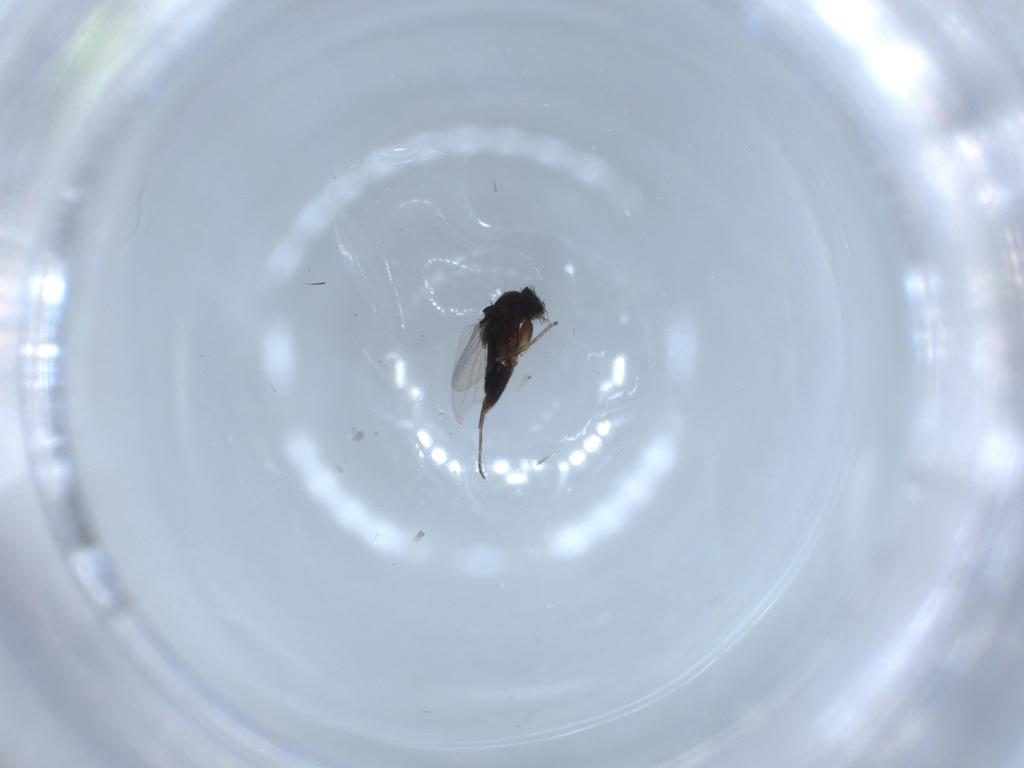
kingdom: Animalia
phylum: Arthropoda
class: Insecta
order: Diptera
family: Phoridae
